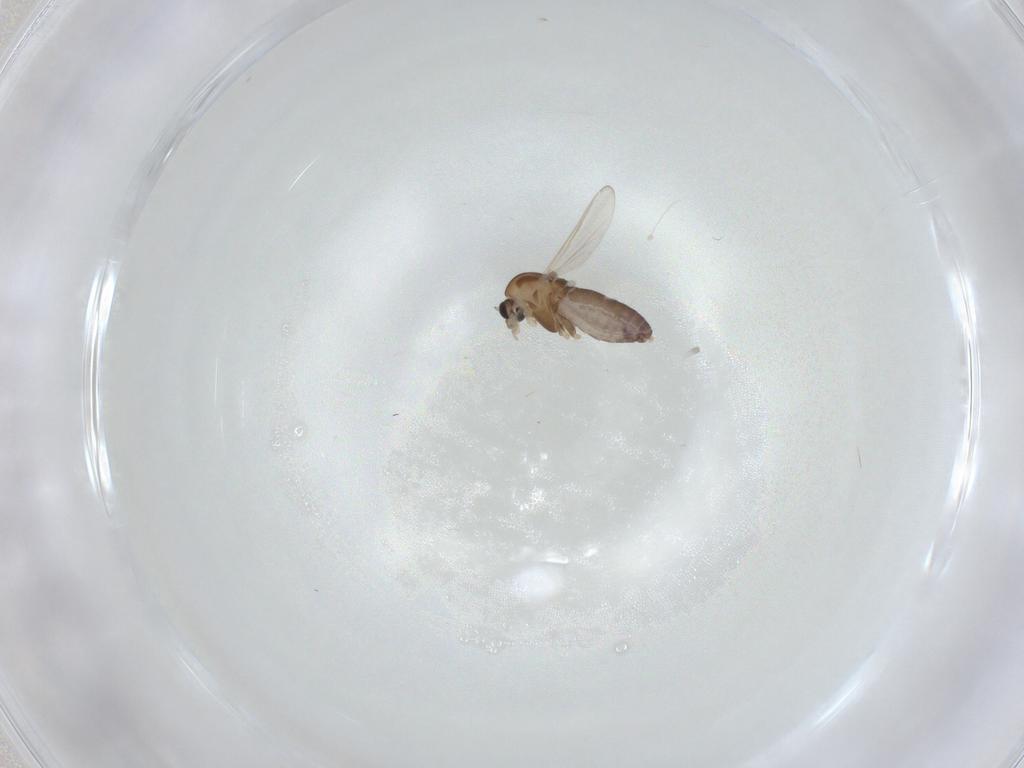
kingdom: Animalia
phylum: Arthropoda
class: Insecta
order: Diptera
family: Chironomidae
